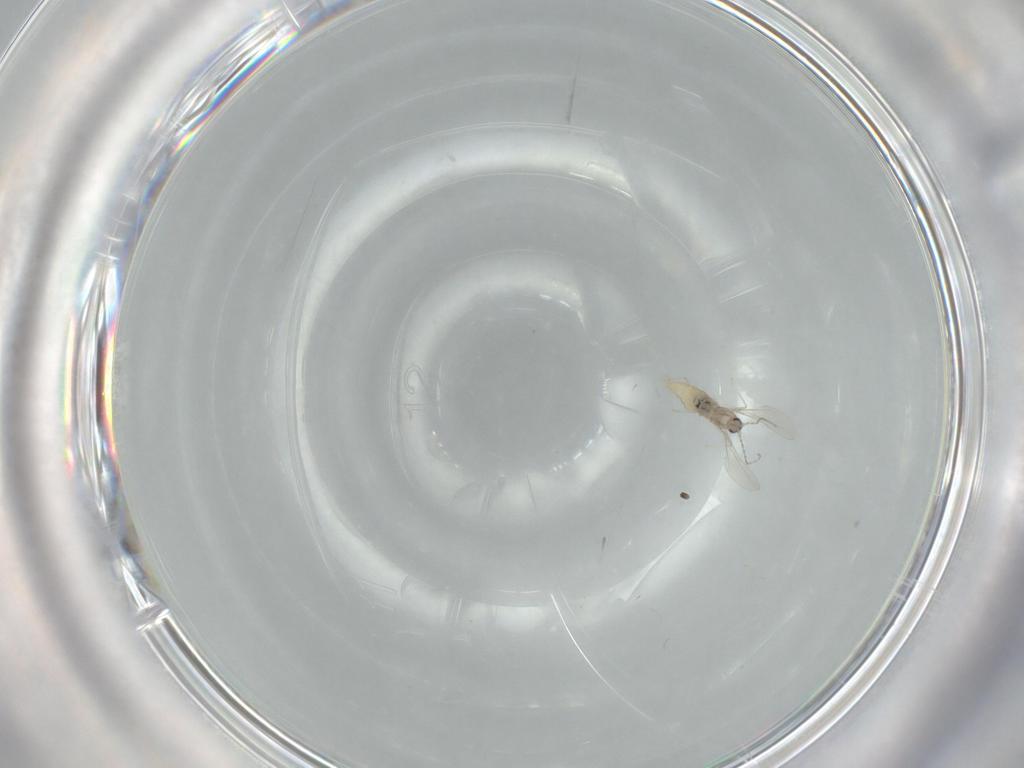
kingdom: Animalia
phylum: Arthropoda
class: Insecta
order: Diptera
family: Cecidomyiidae
